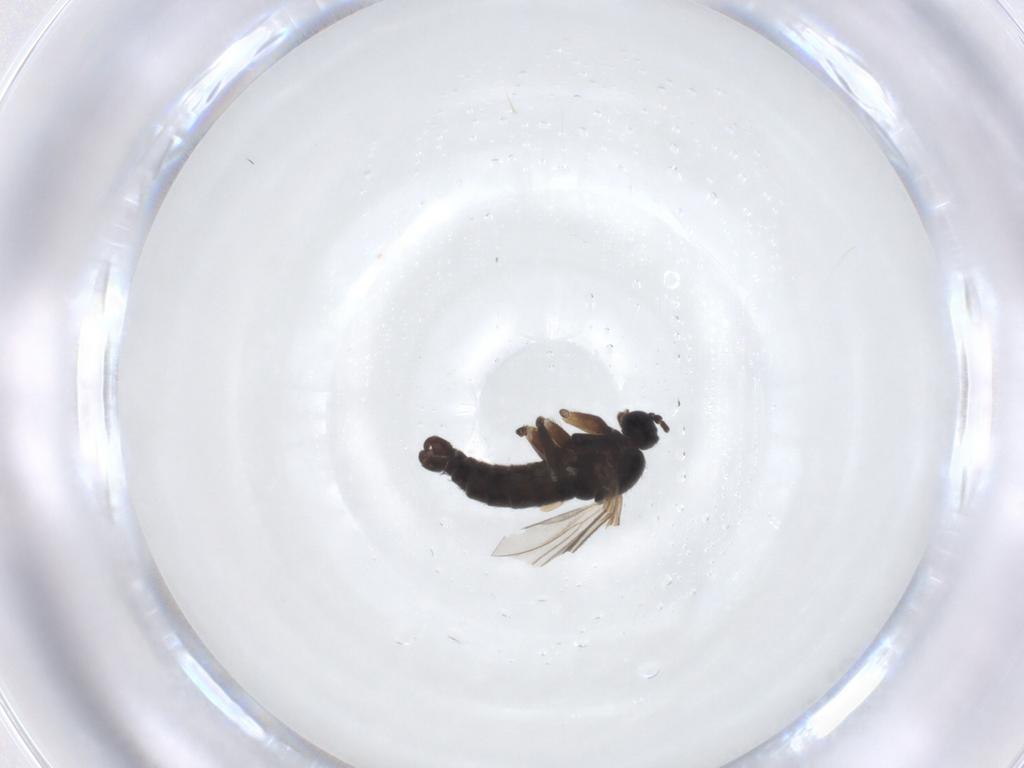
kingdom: Animalia
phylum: Arthropoda
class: Insecta
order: Diptera
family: Sciaridae
